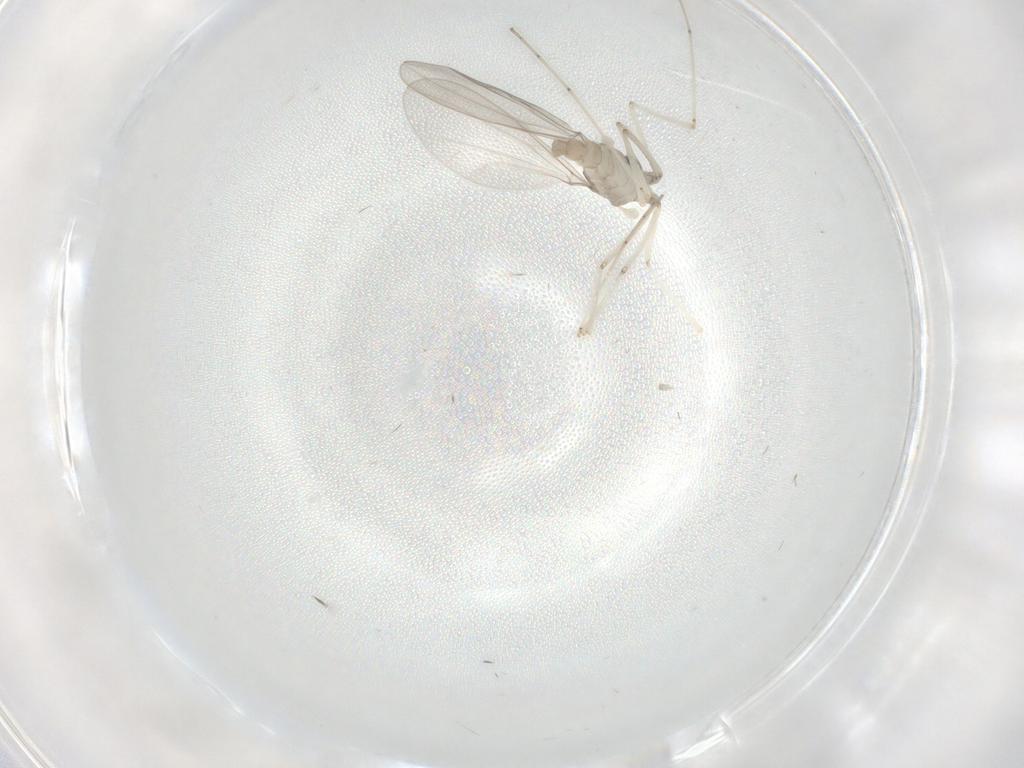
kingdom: Animalia
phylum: Arthropoda
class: Insecta
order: Diptera
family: Cecidomyiidae
